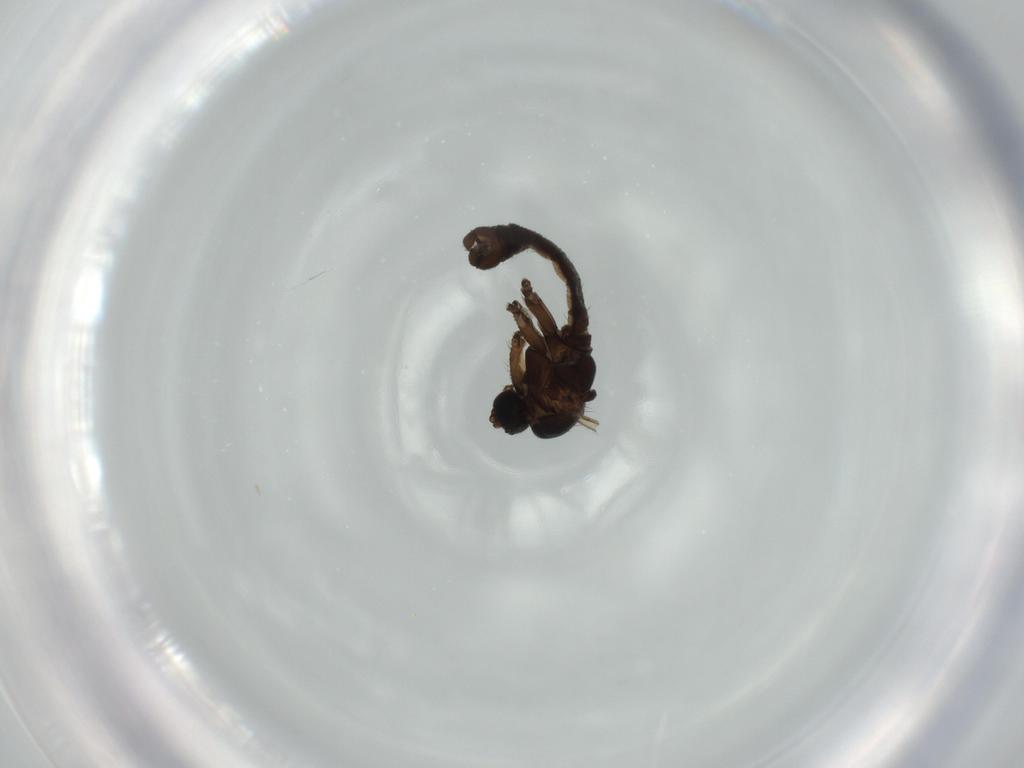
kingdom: Animalia
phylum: Arthropoda
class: Insecta
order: Diptera
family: Sciaridae
